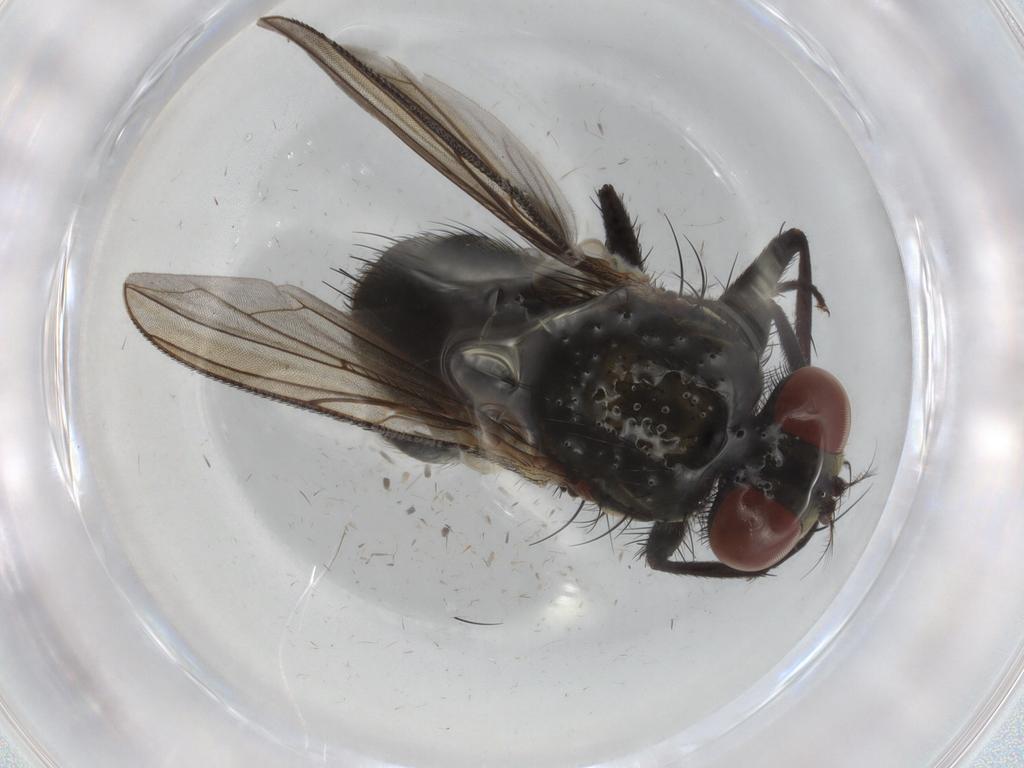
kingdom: Animalia
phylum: Arthropoda
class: Insecta
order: Diptera
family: Sarcophagidae
